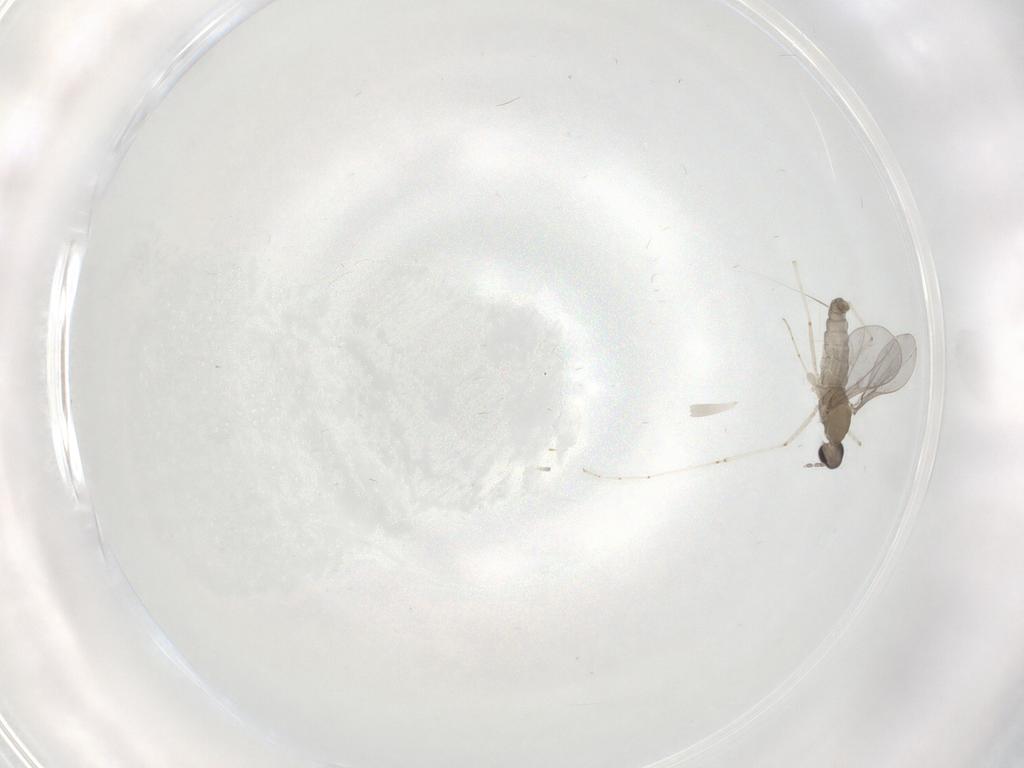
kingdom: Animalia
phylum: Arthropoda
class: Insecta
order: Diptera
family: Cecidomyiidae
